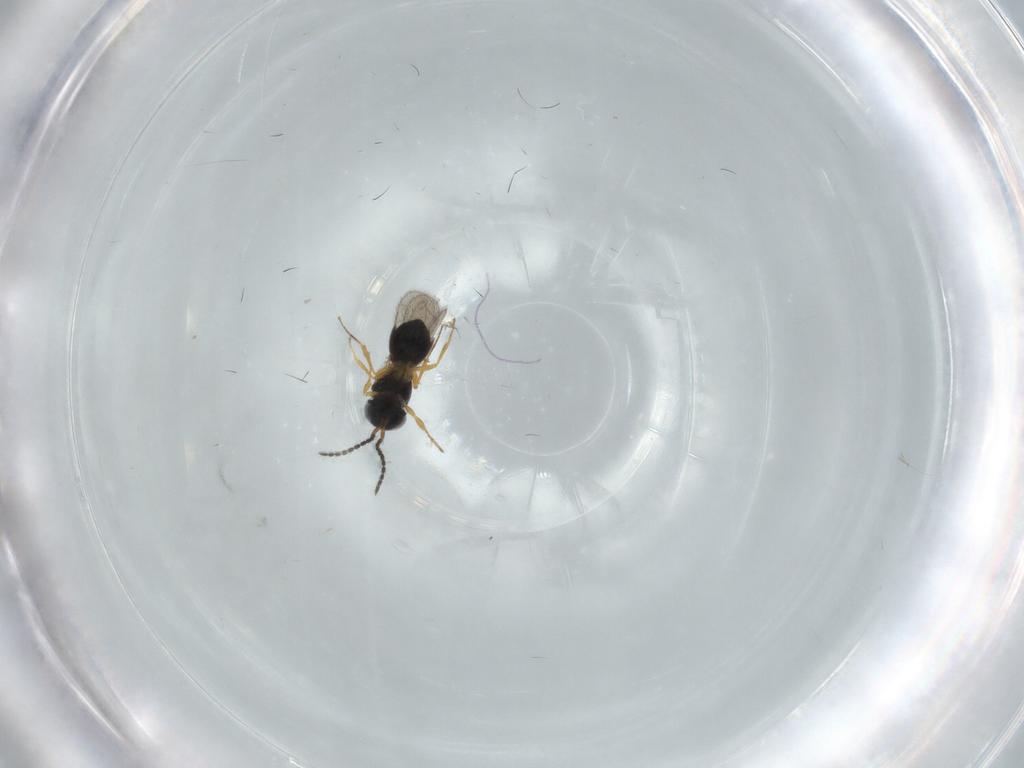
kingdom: Animalia
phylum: Arthropoda
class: Insecta
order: Hymenoptera
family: Scelionidae
